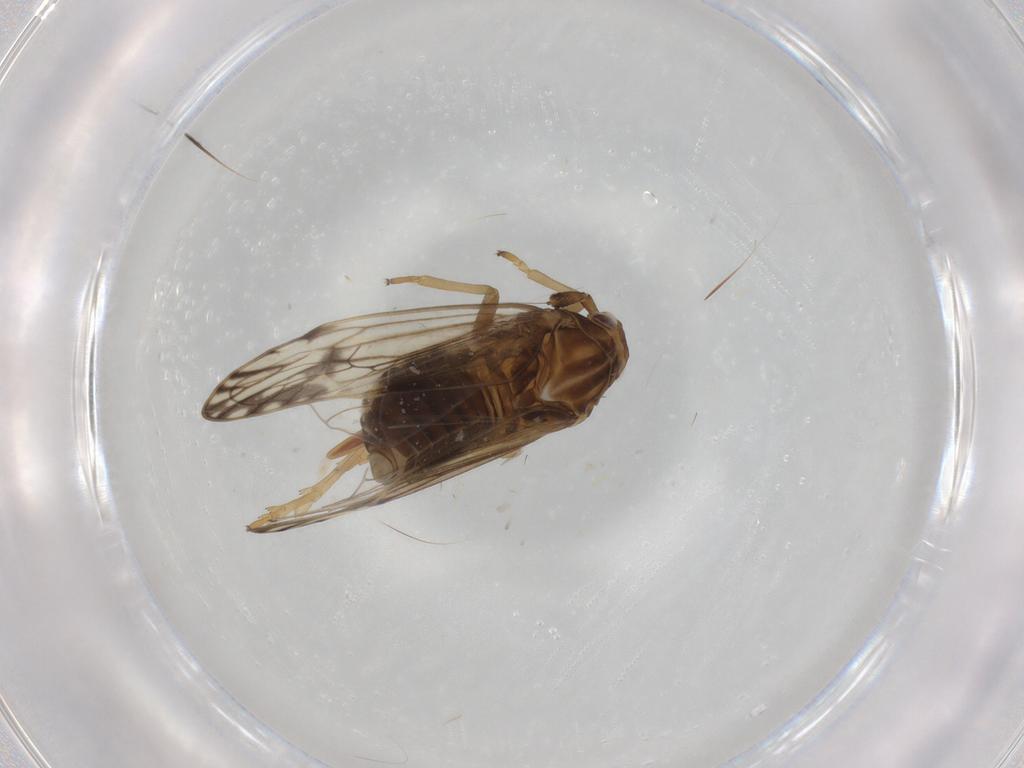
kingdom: Animalia
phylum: Arthropoda
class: Insecta
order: Hemiptera
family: Delphacidae
